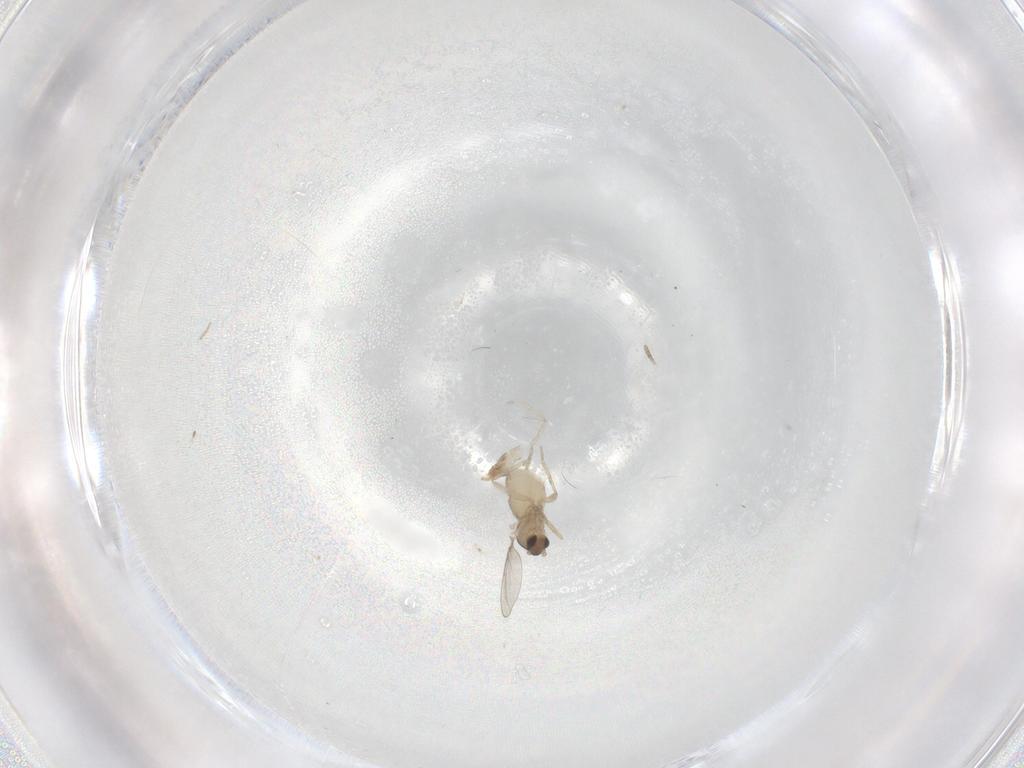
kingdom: Animalia
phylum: Arthropoda
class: Insecta
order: Diptera
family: Cecidomyiidae
